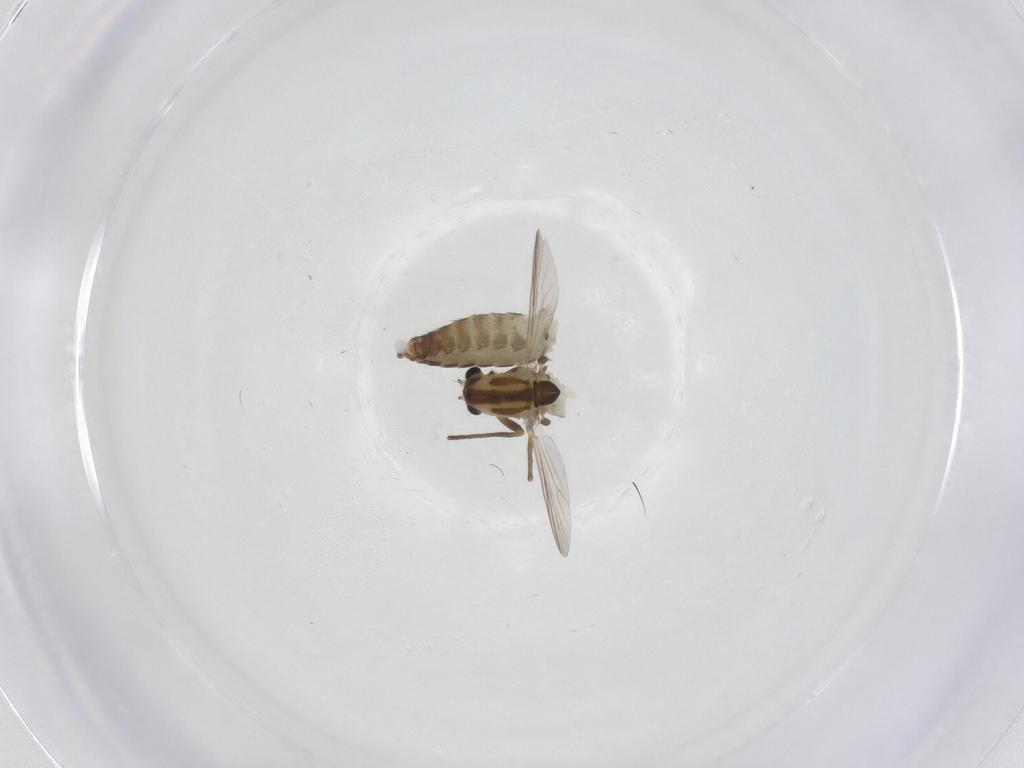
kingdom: Animalia
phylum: Arthropoda
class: Insecta
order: Diptera
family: Chironomidae
